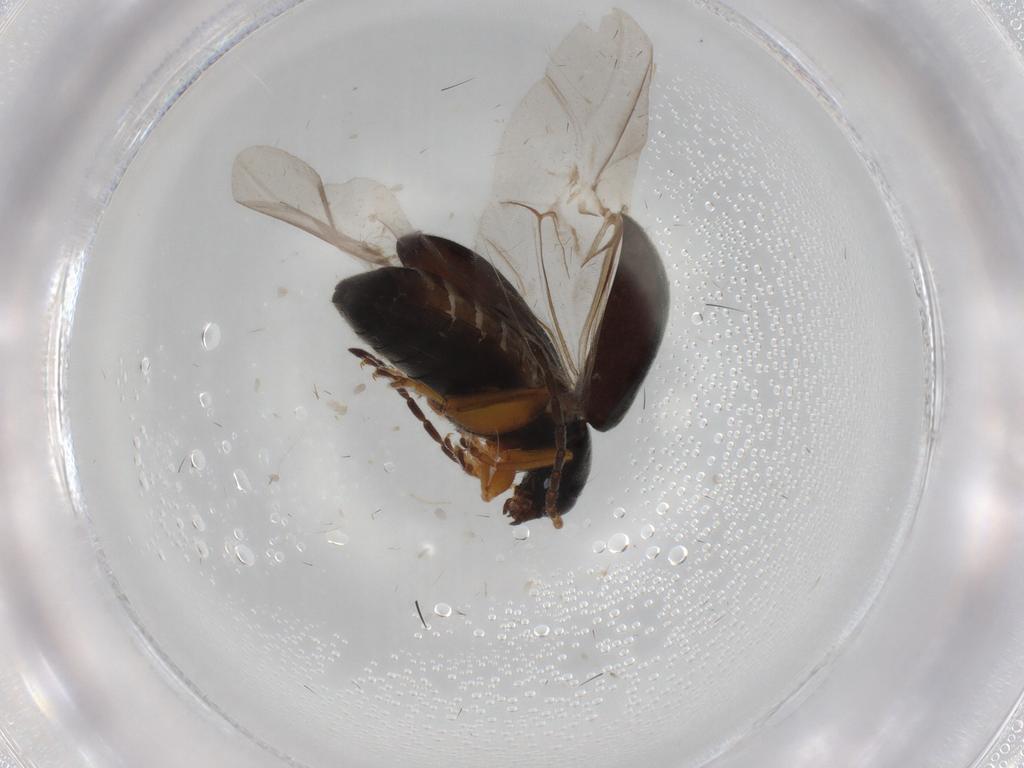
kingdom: Animalia
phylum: Arthropoda
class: Insecta
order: Coleoptera
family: Chrysomelidae
